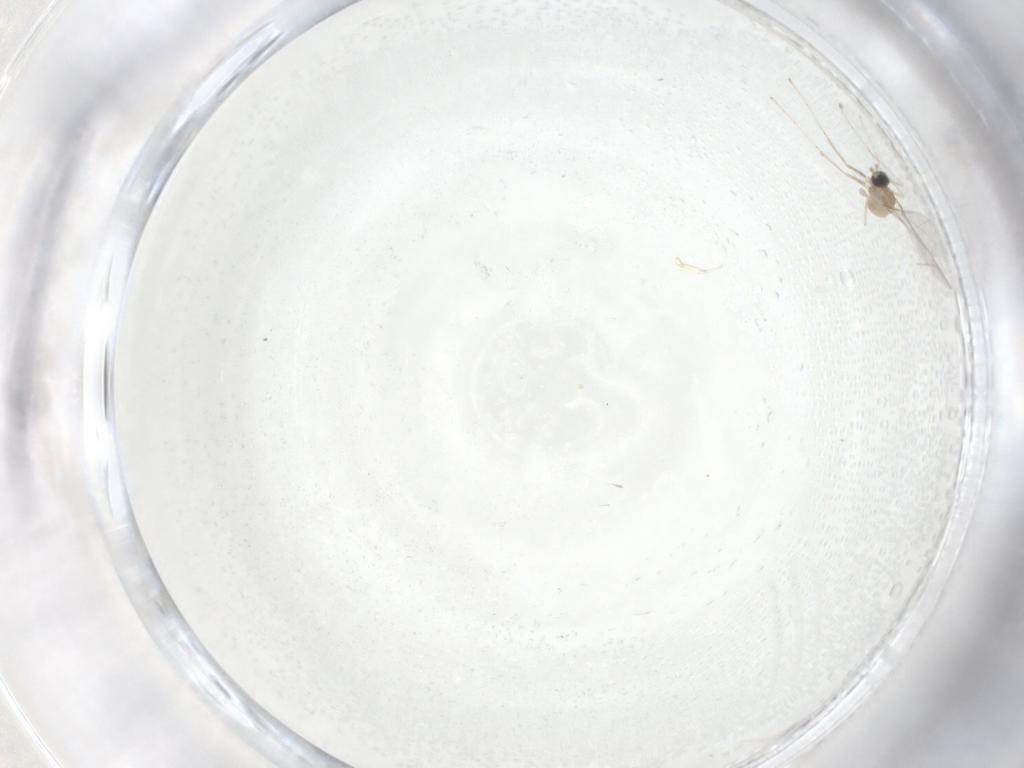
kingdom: Animalia
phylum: Arthropoda
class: Insecta
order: Diptera
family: Cecidomyiidae
